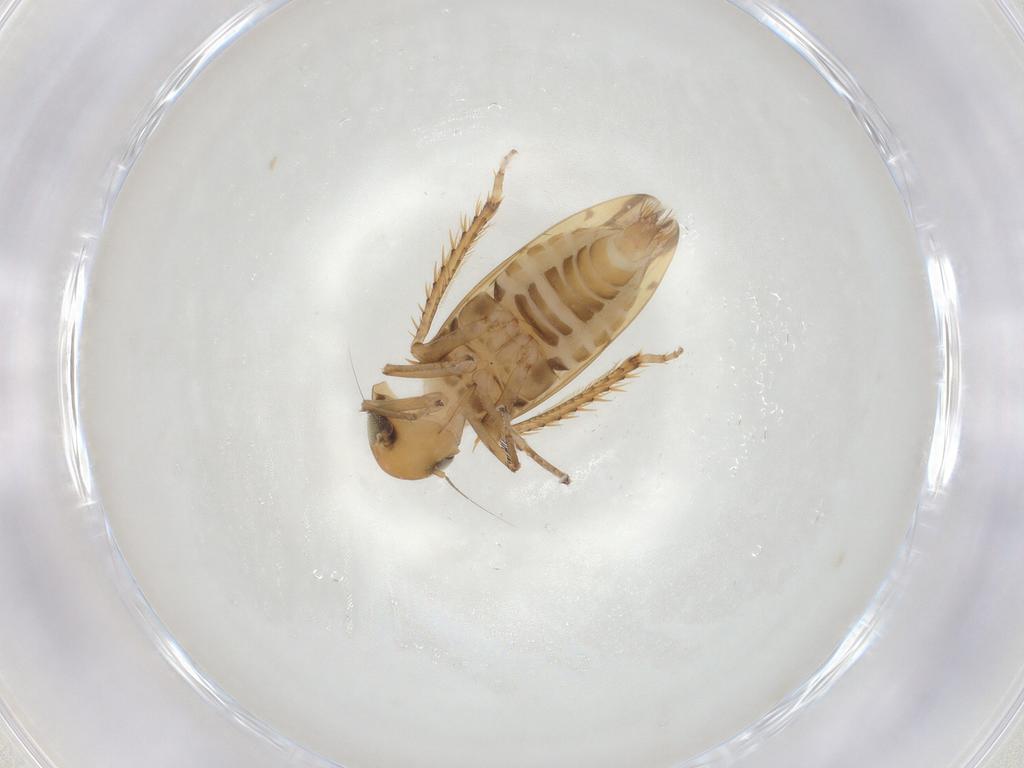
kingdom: Animalia
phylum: Arthropoda
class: Insecta
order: Hemiptera
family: Cicadellidae
